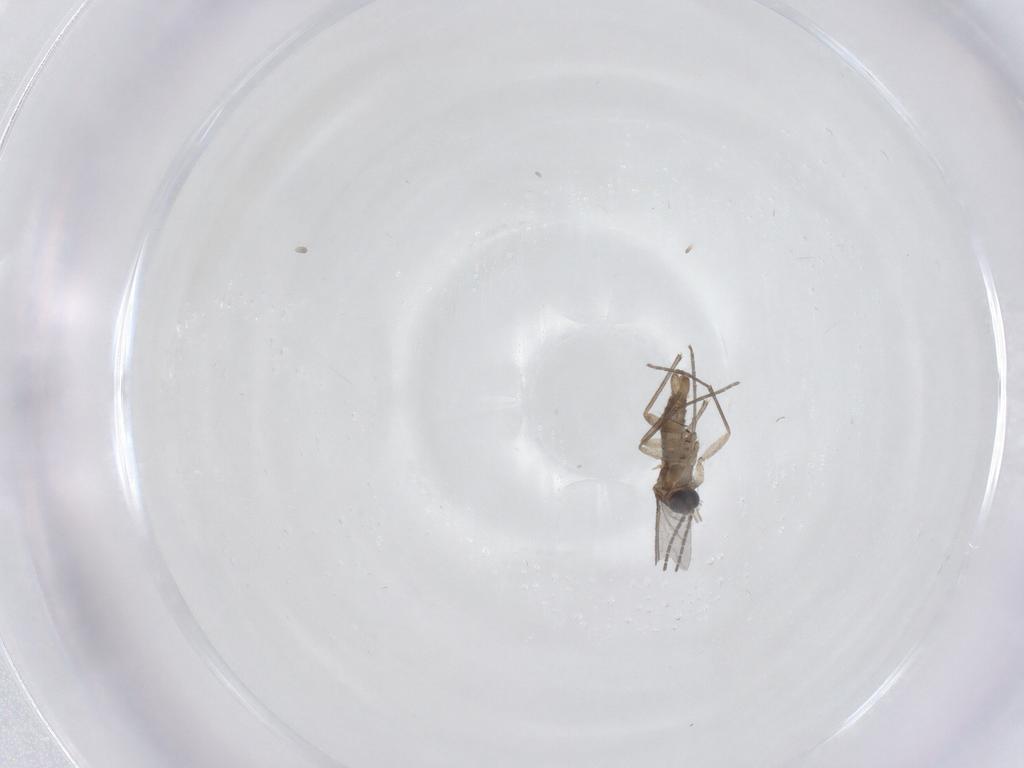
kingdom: Animalia
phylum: Arthropoda
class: Insecta
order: Diptera
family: Sciaridae
